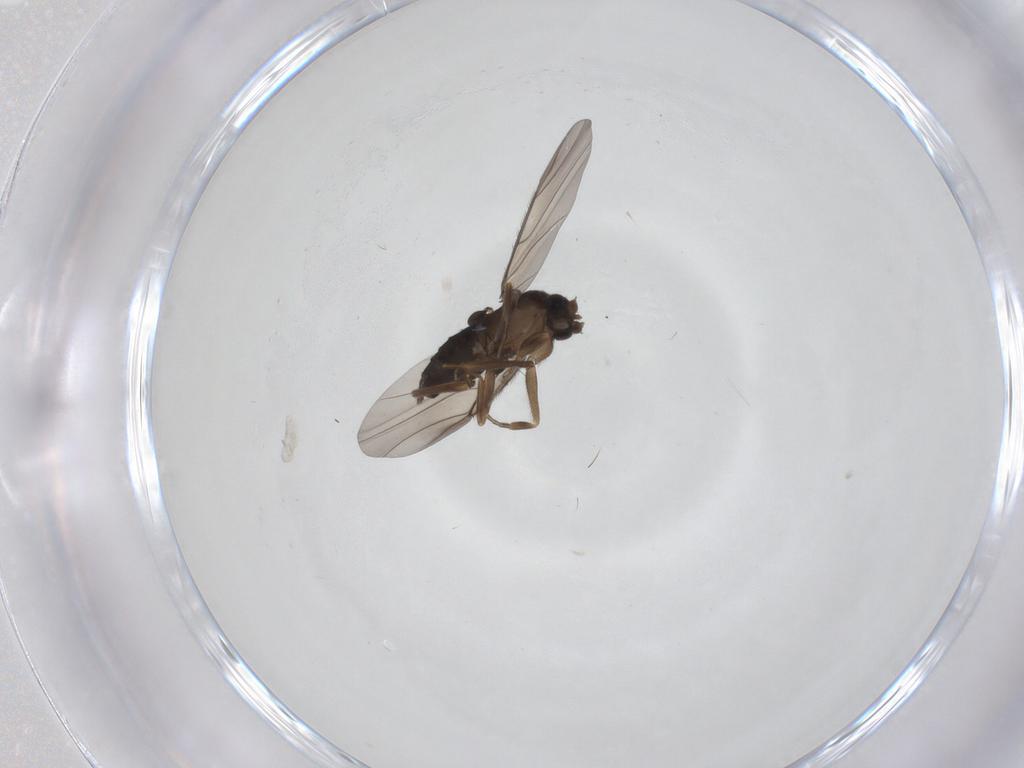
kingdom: Animalia
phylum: Arthropoda
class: Insecta
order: Diptera
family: Phoridae
